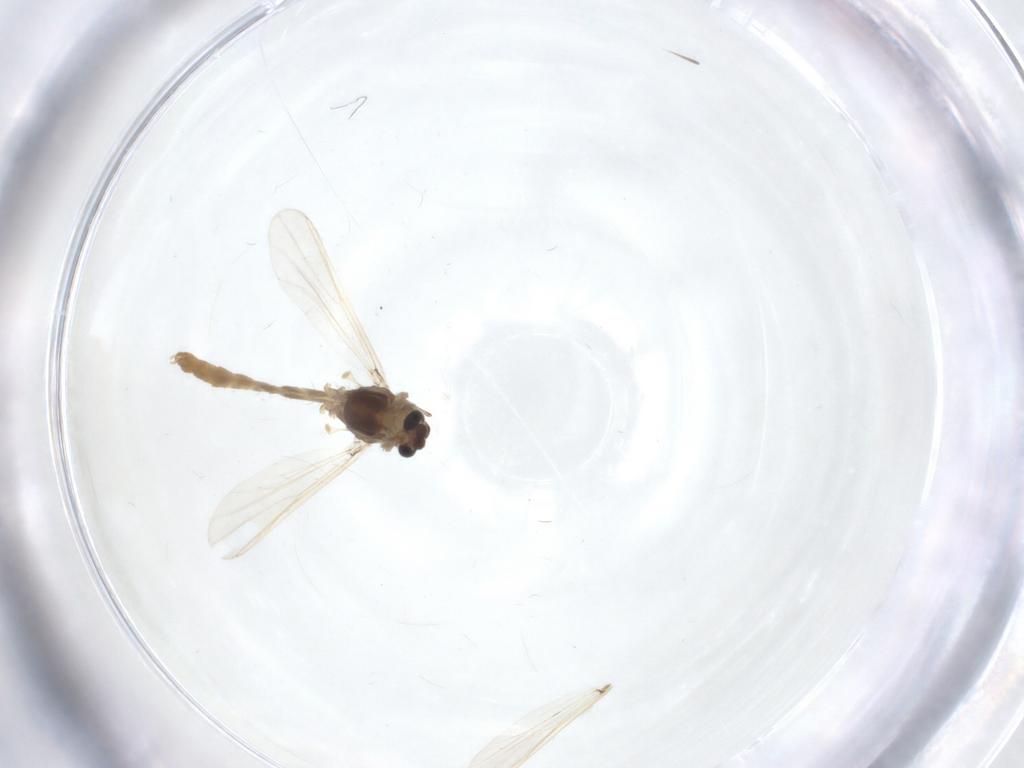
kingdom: Animalia
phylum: Arthropoda
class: Insecta
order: Diptera
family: Chironomidae
